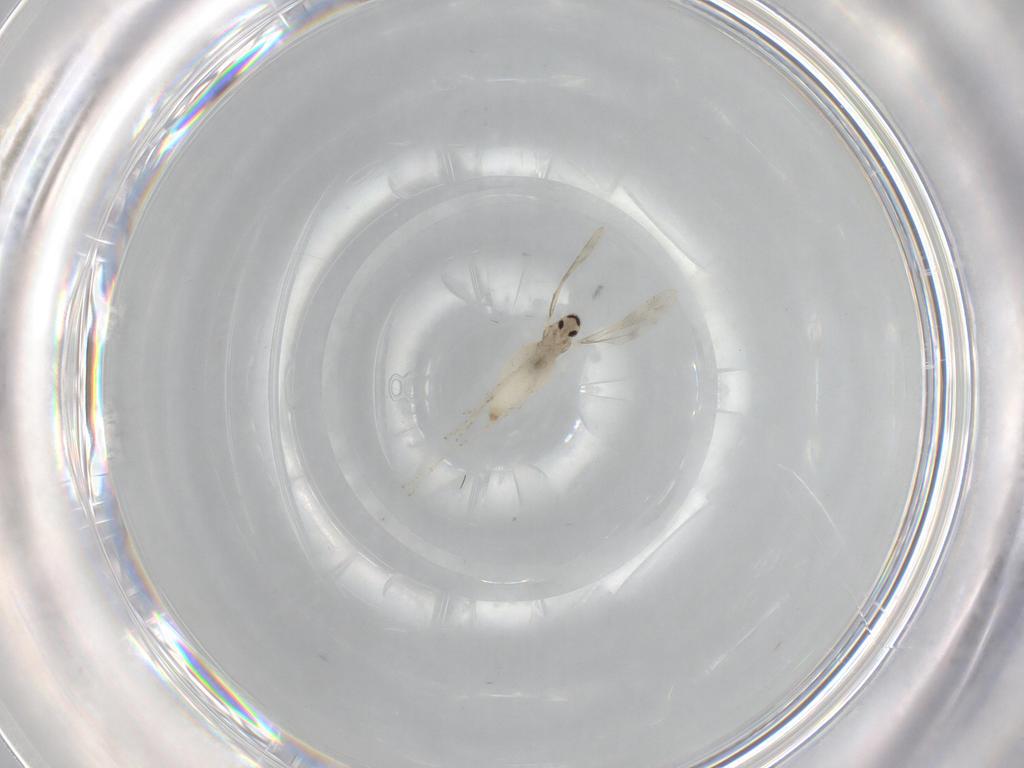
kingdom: Animalia
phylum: Arthropoda
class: Insecta
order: Diptera
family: Cecidomyiidae
